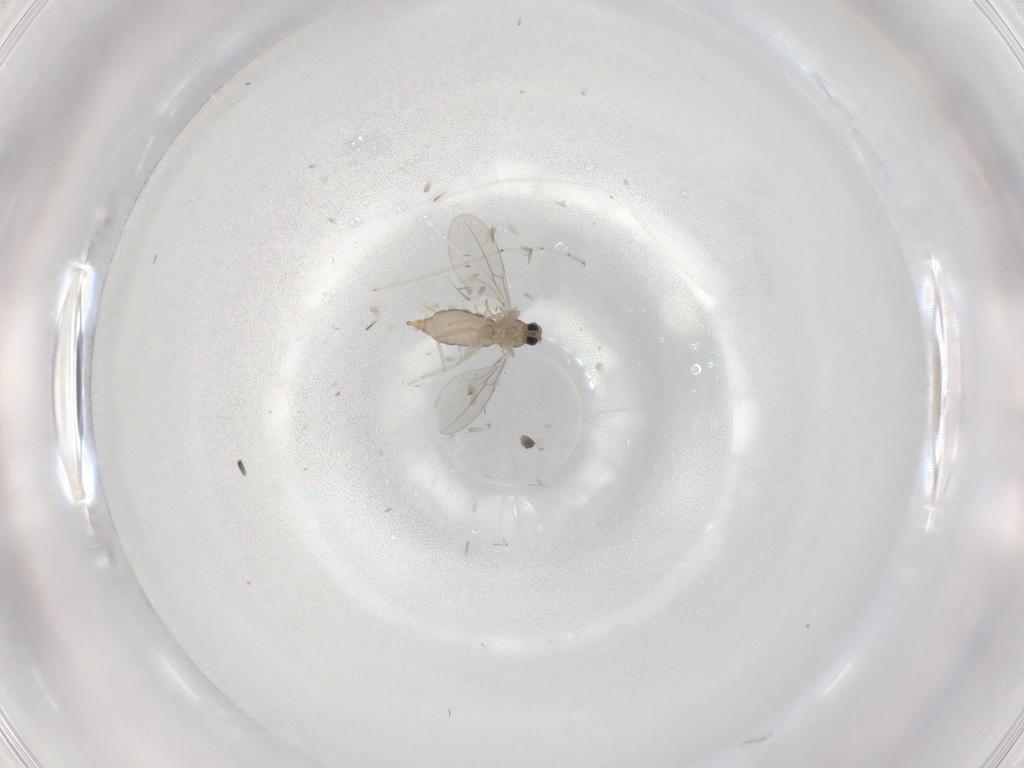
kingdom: Animalia
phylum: Arthropoda
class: Insecta
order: Diptera
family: Cecidomyiidae
